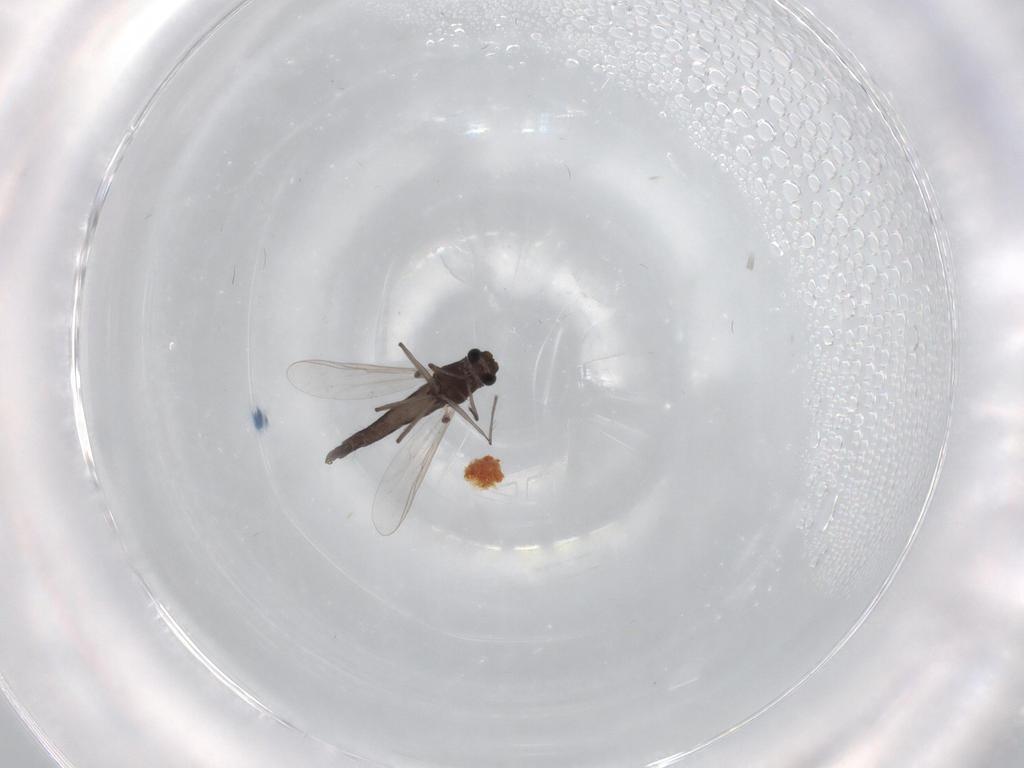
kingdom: Animalia
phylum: Arthropoda
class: Insecta
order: Diptera
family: Chironomidae
